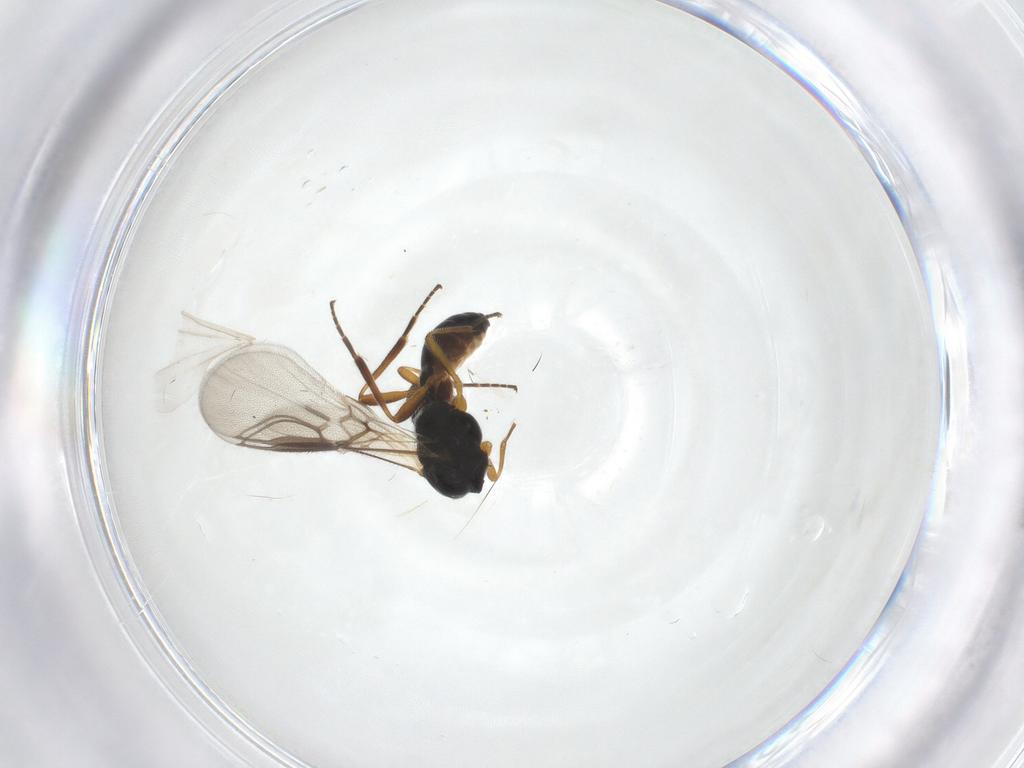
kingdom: Animalia
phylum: Arthropoda
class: Insecta
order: Hymenoptera
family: Braconidae
